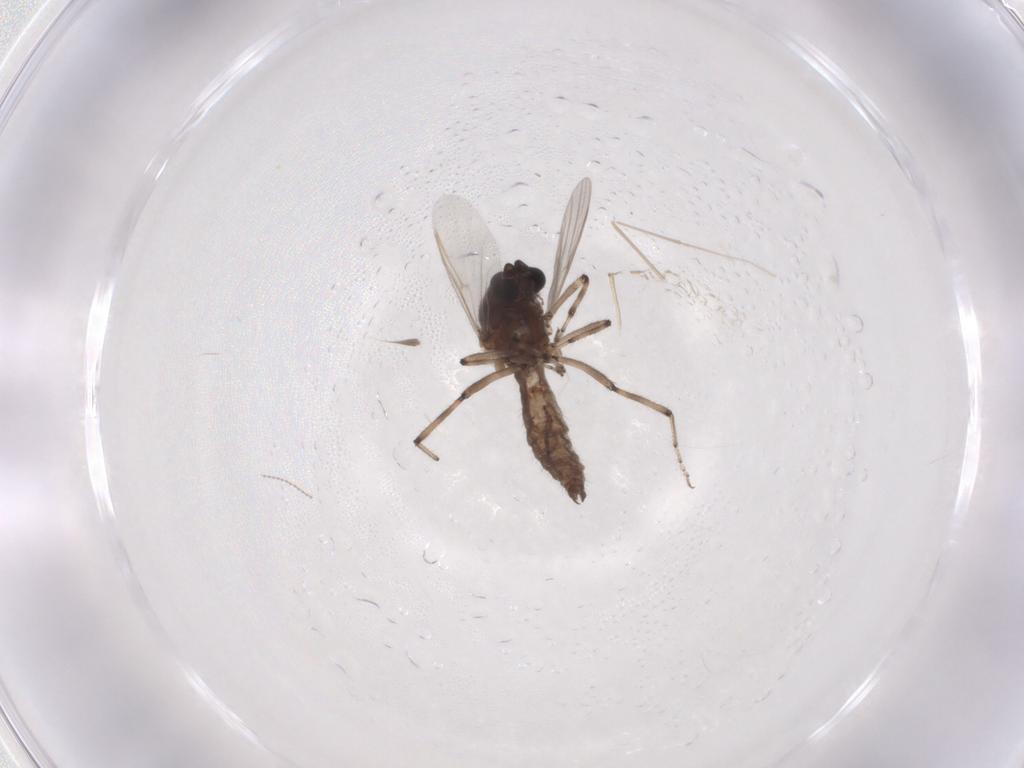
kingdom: Animalia
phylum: Arthropoda
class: Insecta
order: Diptera
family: Ceratopogonidae
